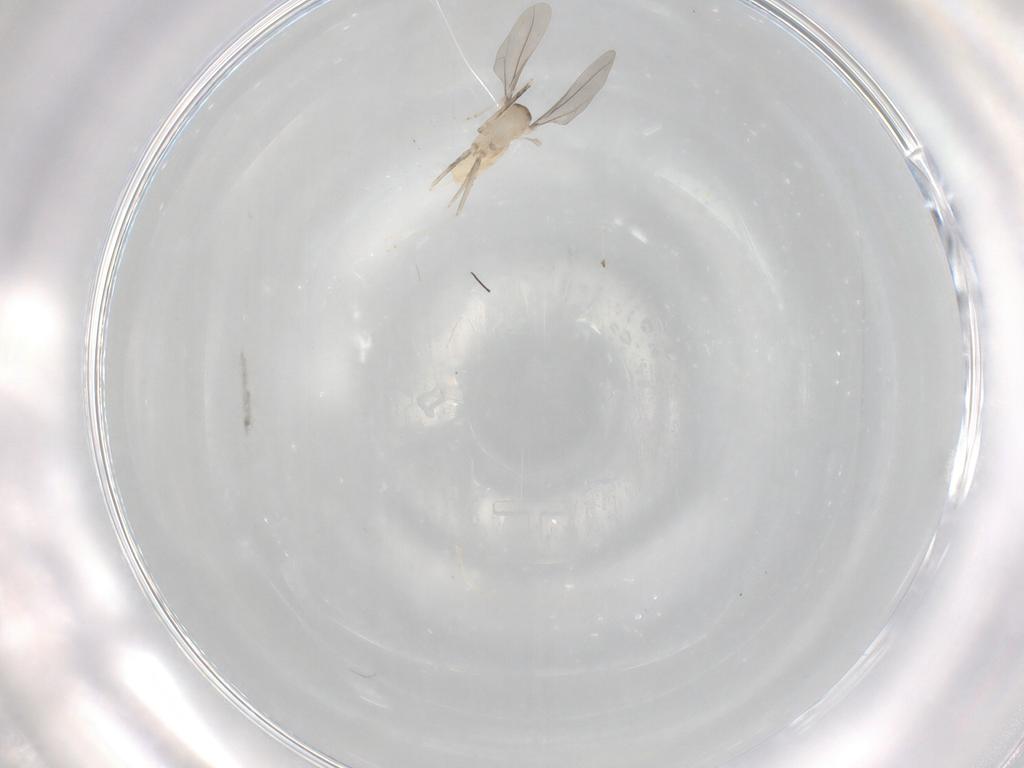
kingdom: Animalia
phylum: Arthropoda
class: Insecta
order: Diptera
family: Cecidomyiidae
